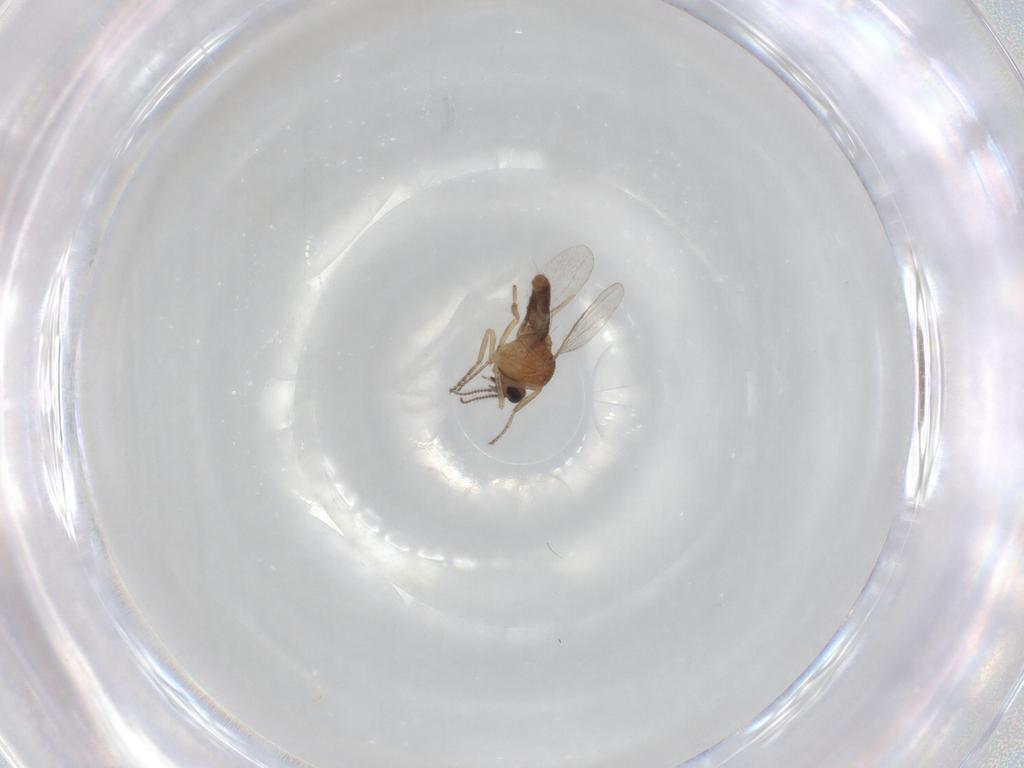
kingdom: Animalia
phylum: Arthropoda
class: Insecta
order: Diptera
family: Ceratopogonidae
